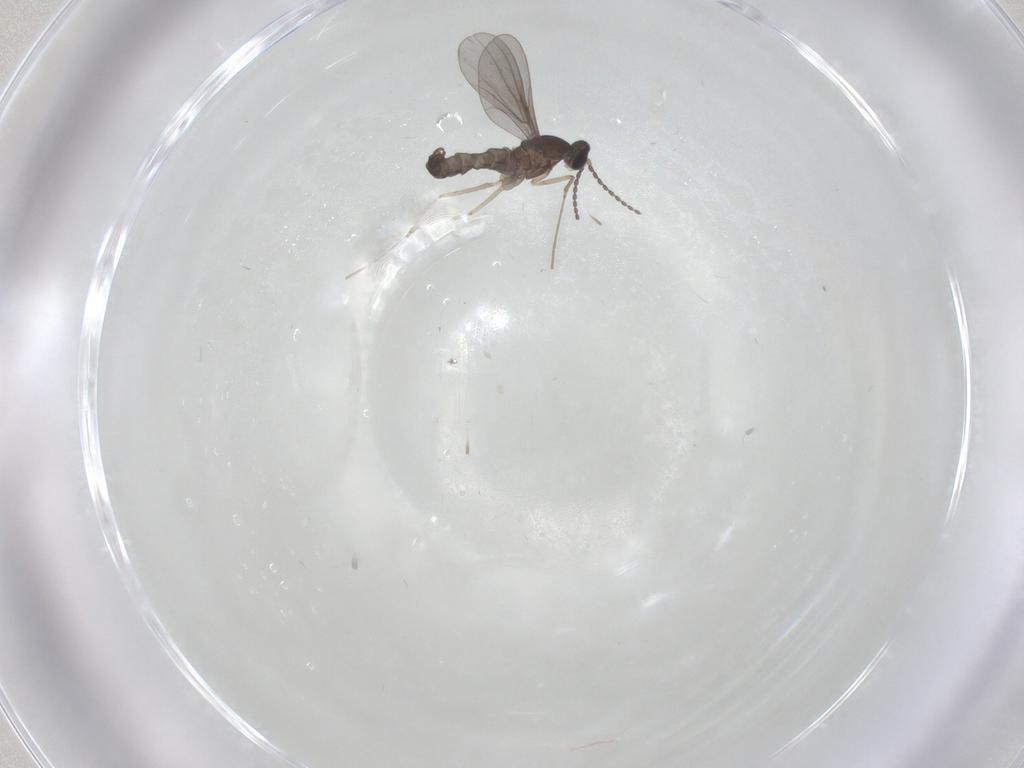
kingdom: Animalia
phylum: Arthropoda
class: Insecta
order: Diptera
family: Cecidomyiidae
